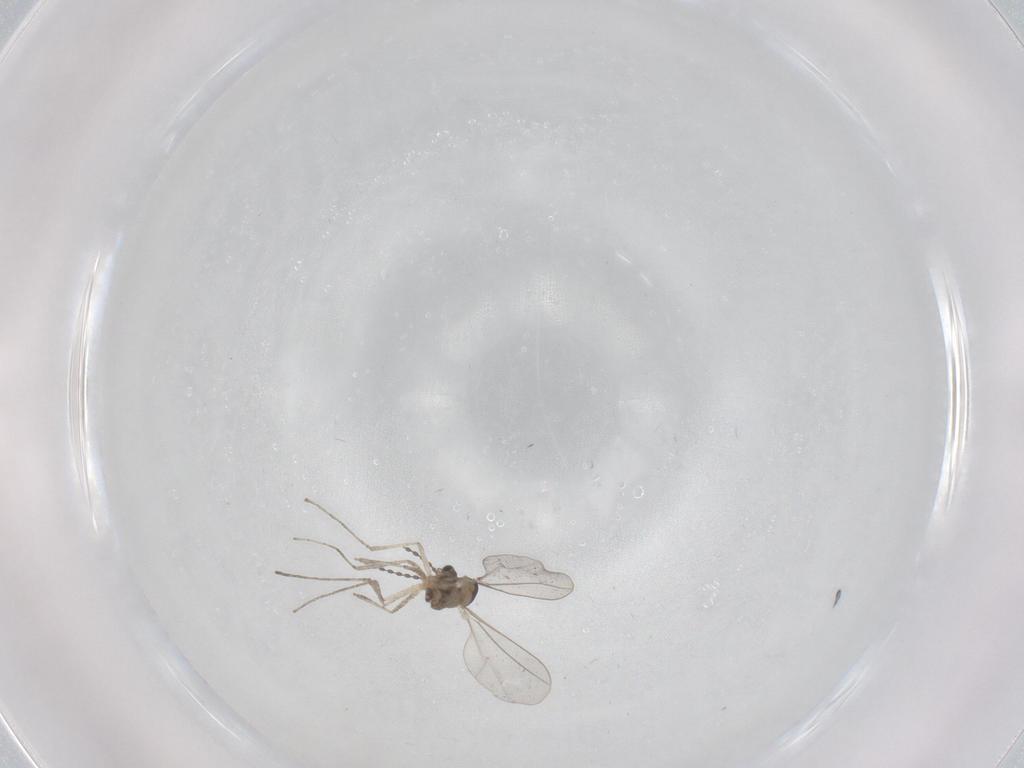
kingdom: Animalia
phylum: Arthropoda
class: Insecta
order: Diptera
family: Cecidomyiidae
